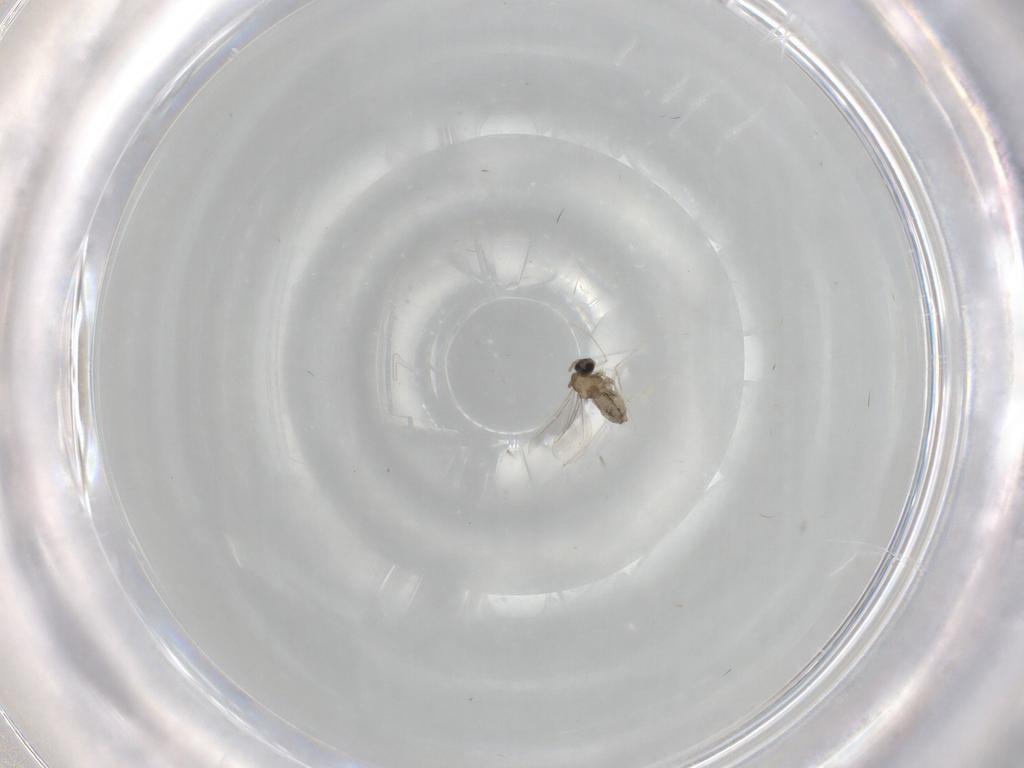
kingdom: Animalia
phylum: Arthropoda
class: Insecta
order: Diptera
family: Cecidomyiidae
